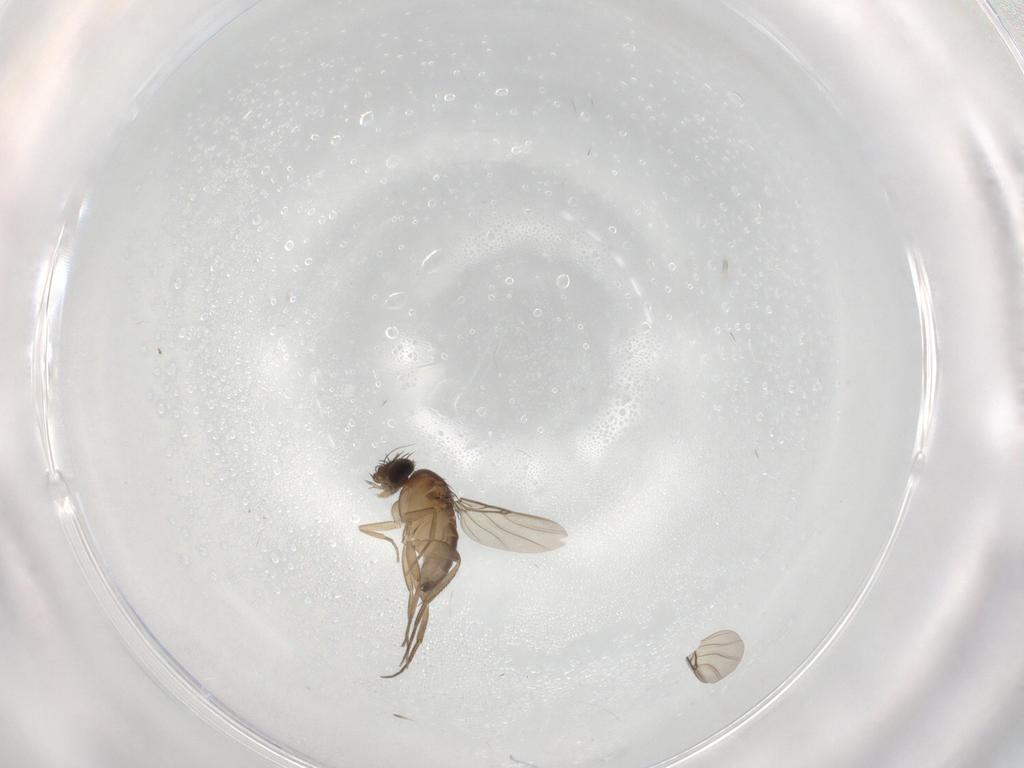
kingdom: Animalia
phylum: Arthropoda
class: Insecta
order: Diptera
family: Phoridae
